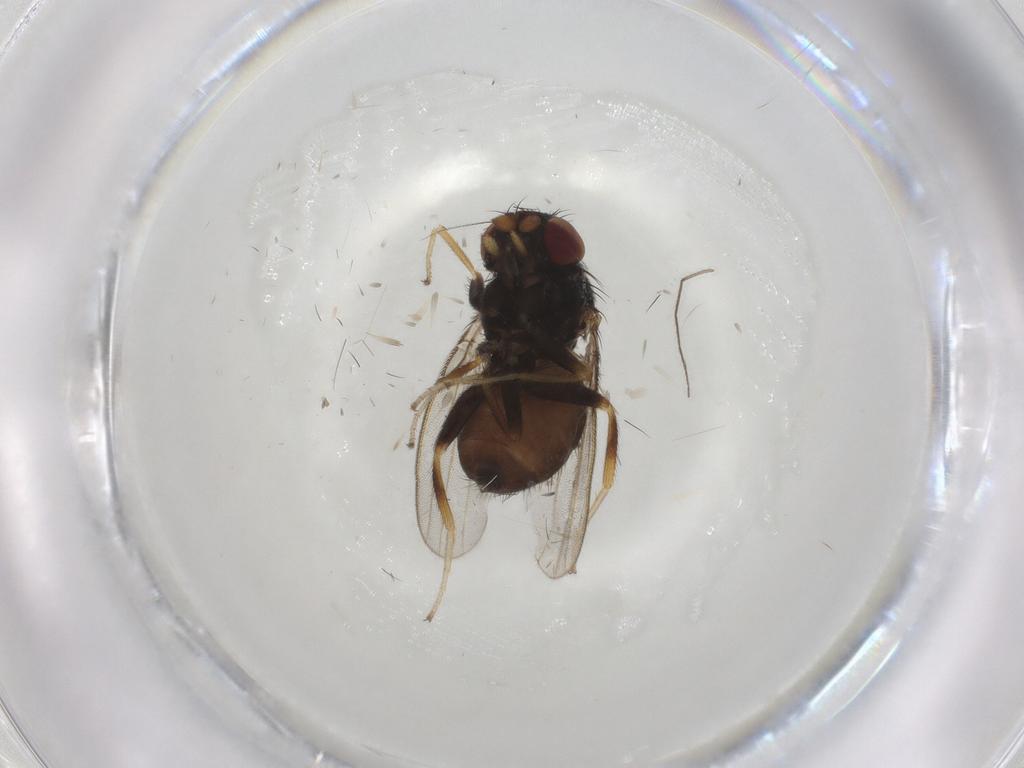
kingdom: Animalia
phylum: Arthropoda
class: Insecta
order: Diptera
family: Milichiidae
